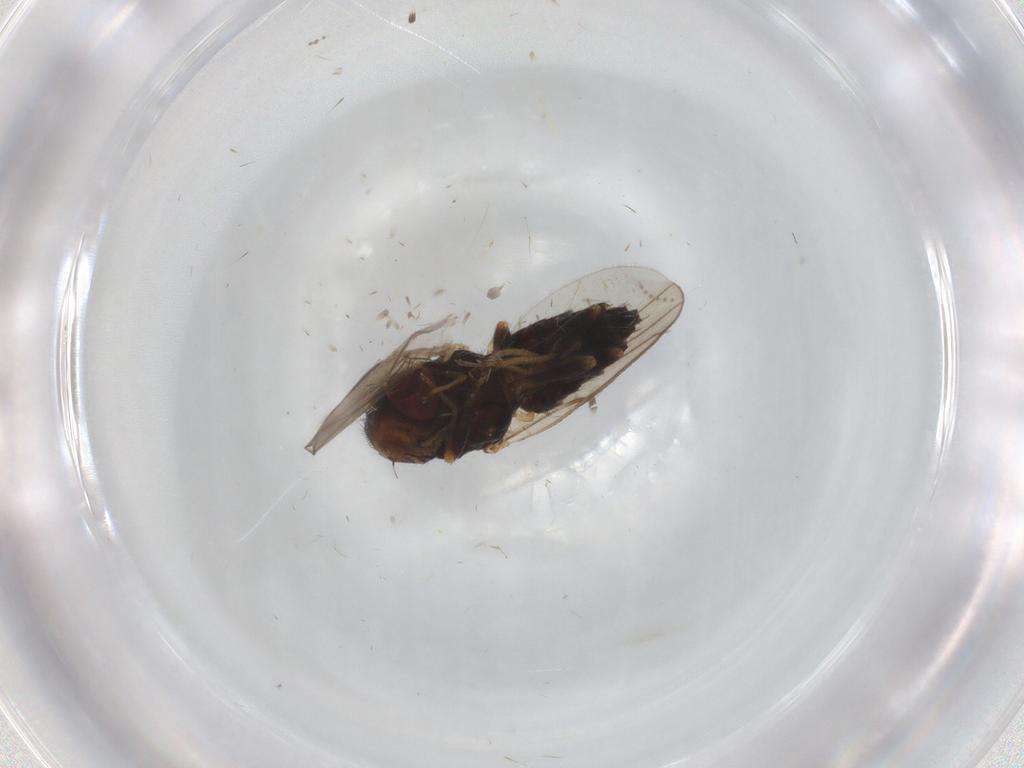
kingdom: Animalia
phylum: Arthropoda
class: Insecta
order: Diptera
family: Chloropidae
